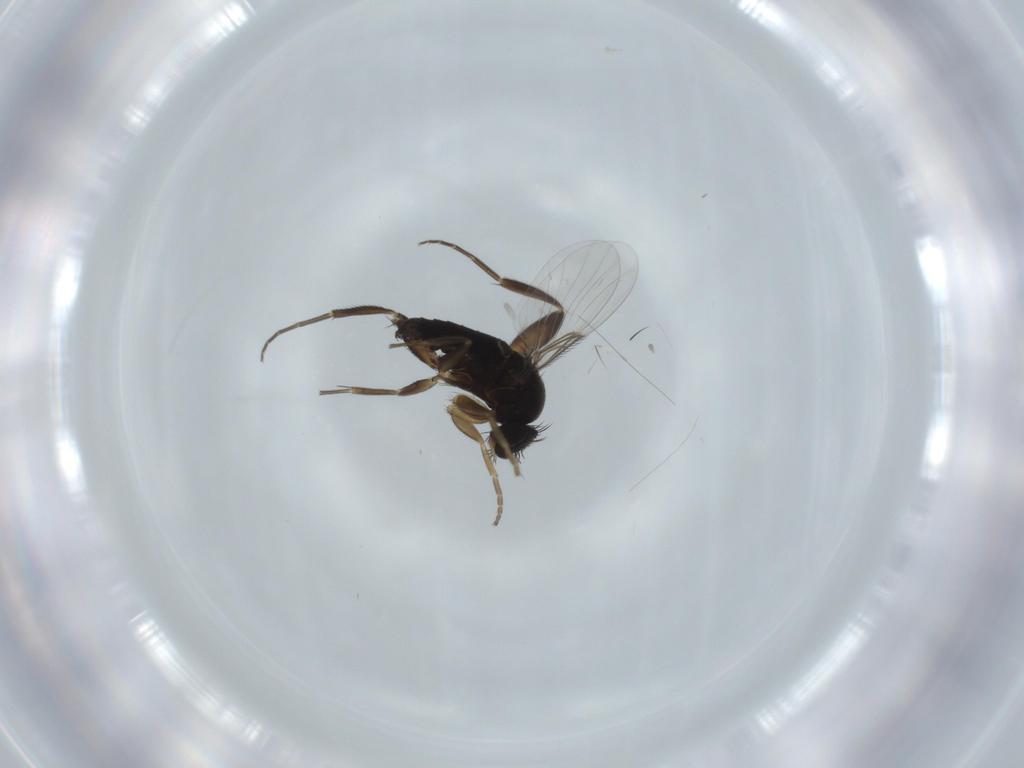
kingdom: Animalia
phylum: Arthropoda
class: Insecta
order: Diptera
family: Phoridae
